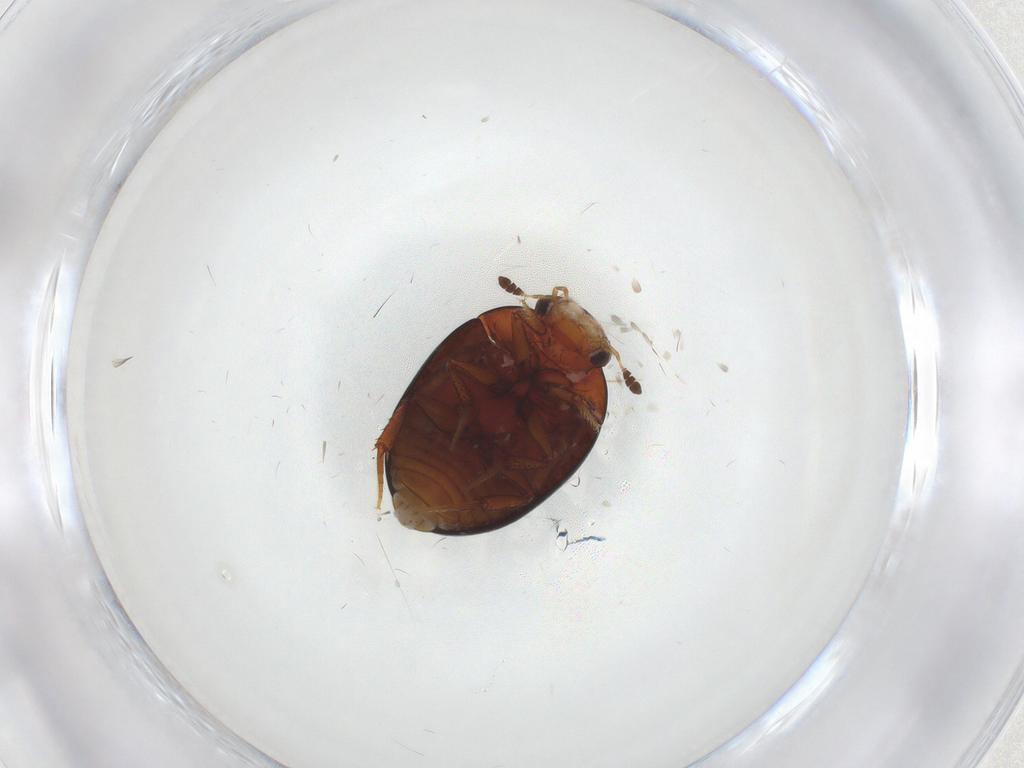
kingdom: Animalia
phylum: Arthropoda
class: Insecta
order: Coleoptera
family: Hydrophilidae
